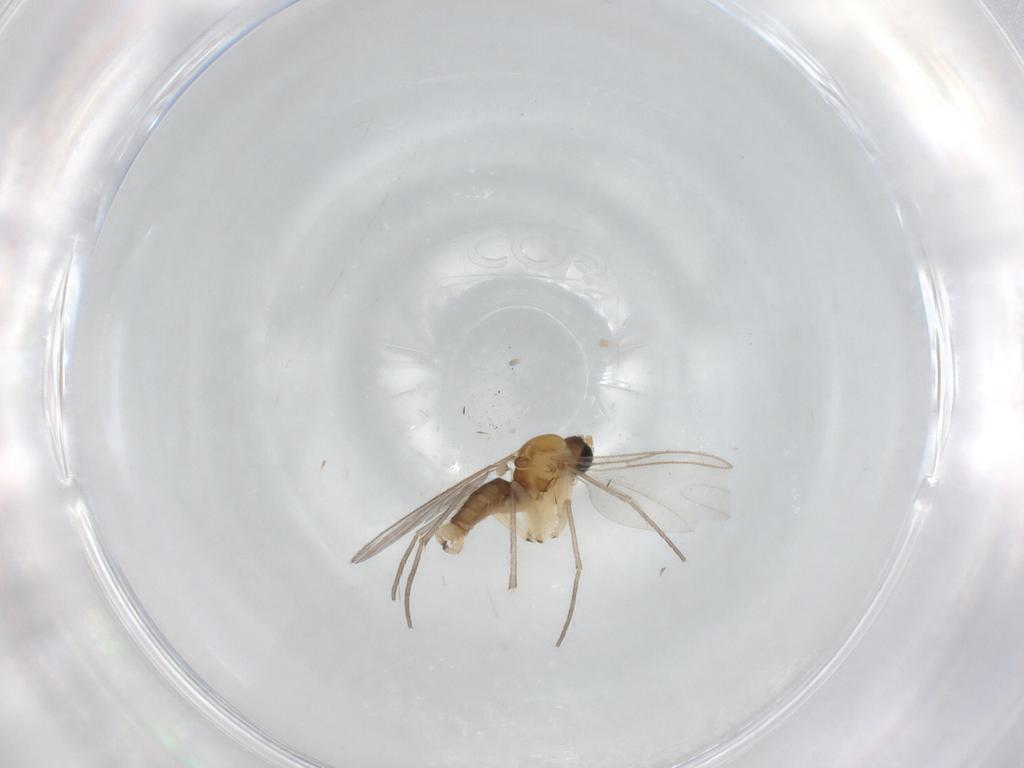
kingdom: Animalia
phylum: Arthropoda
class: Insecta
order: Diptera
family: Sciaridae
